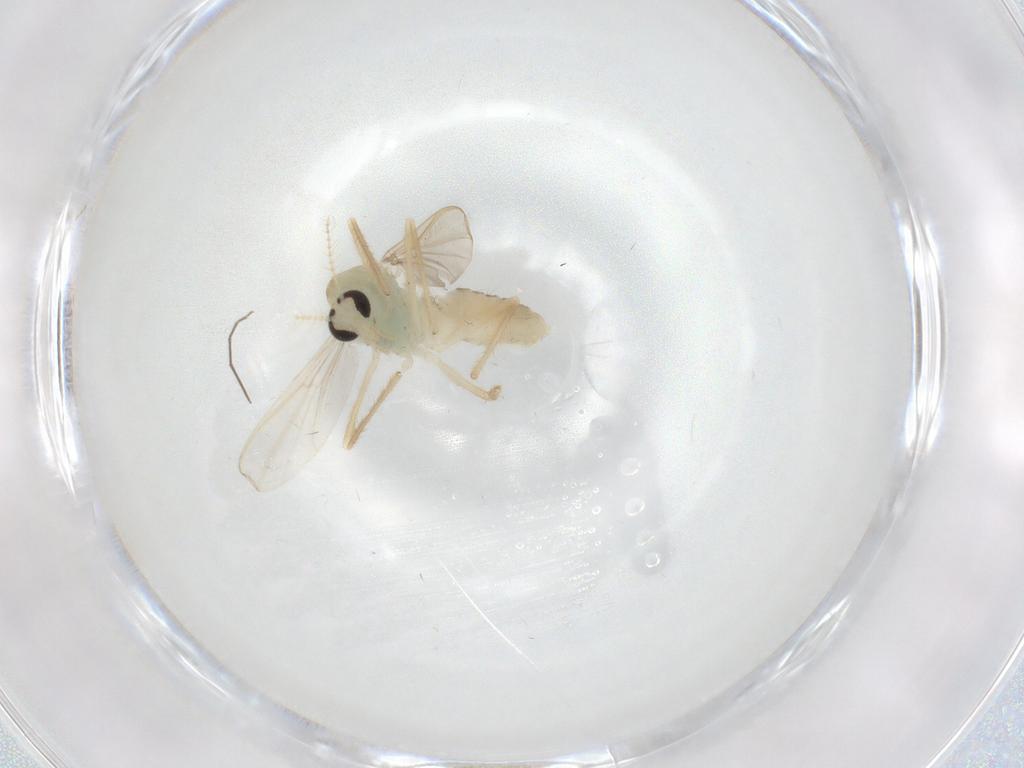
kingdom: Animalia
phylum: Arthropoda
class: Insecta
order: Diptera
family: Chironomidae
